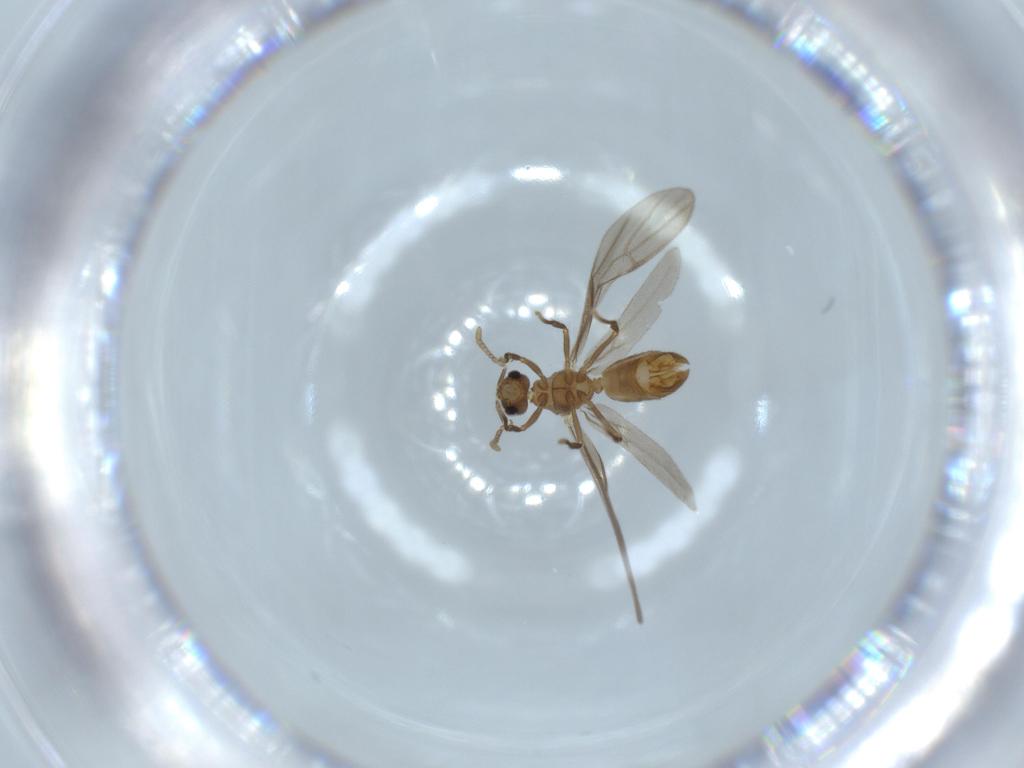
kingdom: Animalia
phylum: Arthropoda
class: Insecta
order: Hymenoptera
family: Formicidae
